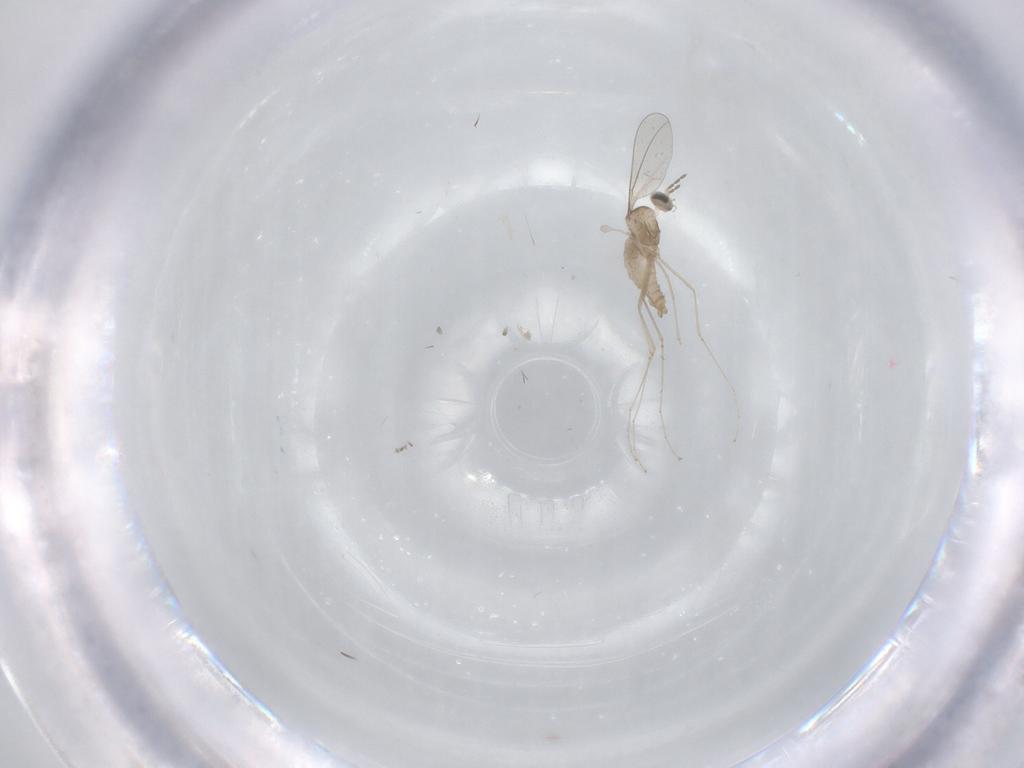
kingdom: Animalia
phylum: Arthropoda
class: Insecta
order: Diptera
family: Cecidomyiidae
